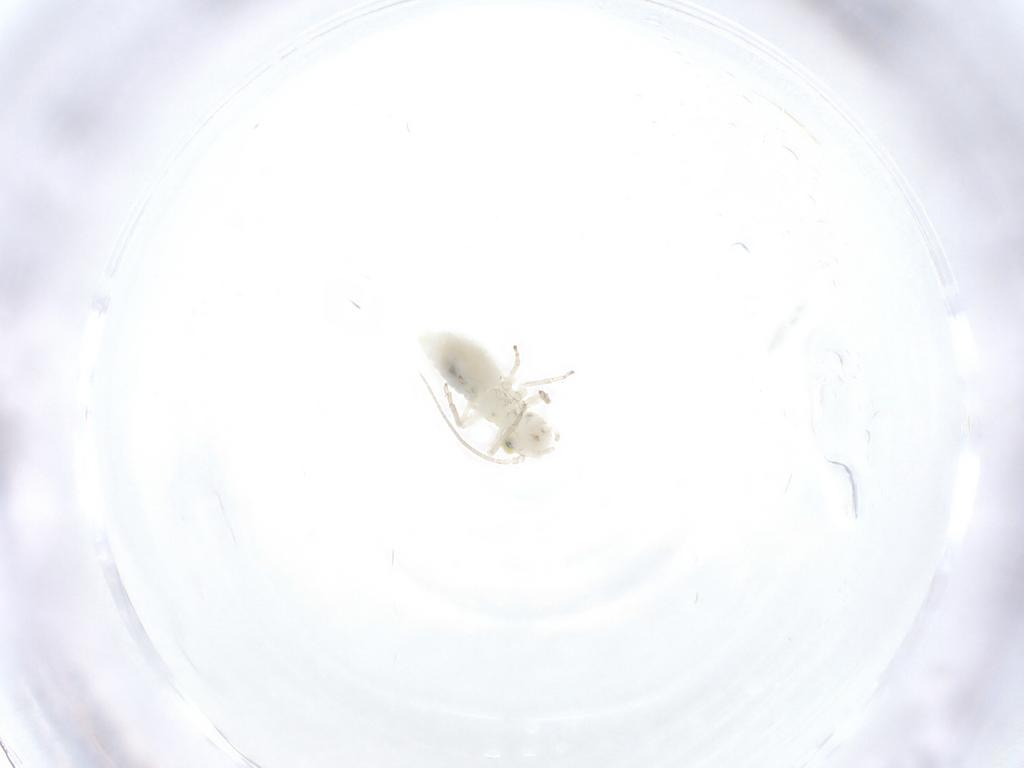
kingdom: Animalia
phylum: Arthropoda
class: Insecta
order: Psocodea
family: Caeciliusidae
